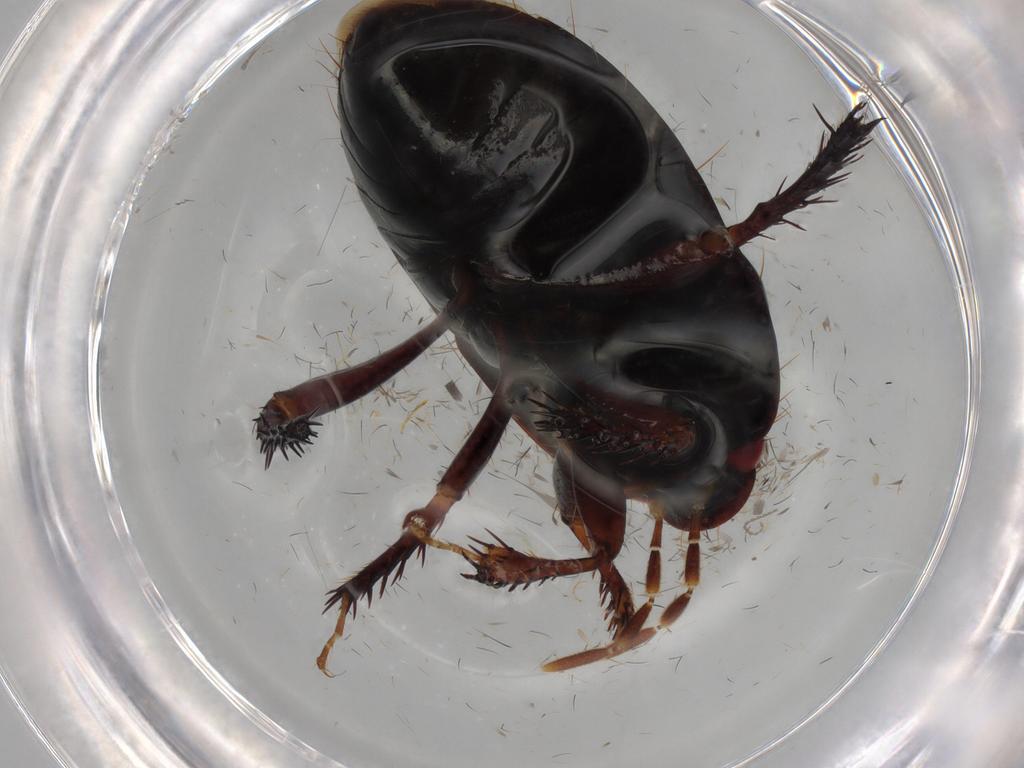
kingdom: Animalia
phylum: Arthropoda
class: Insecta
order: Hemiptera
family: Cydnidae
